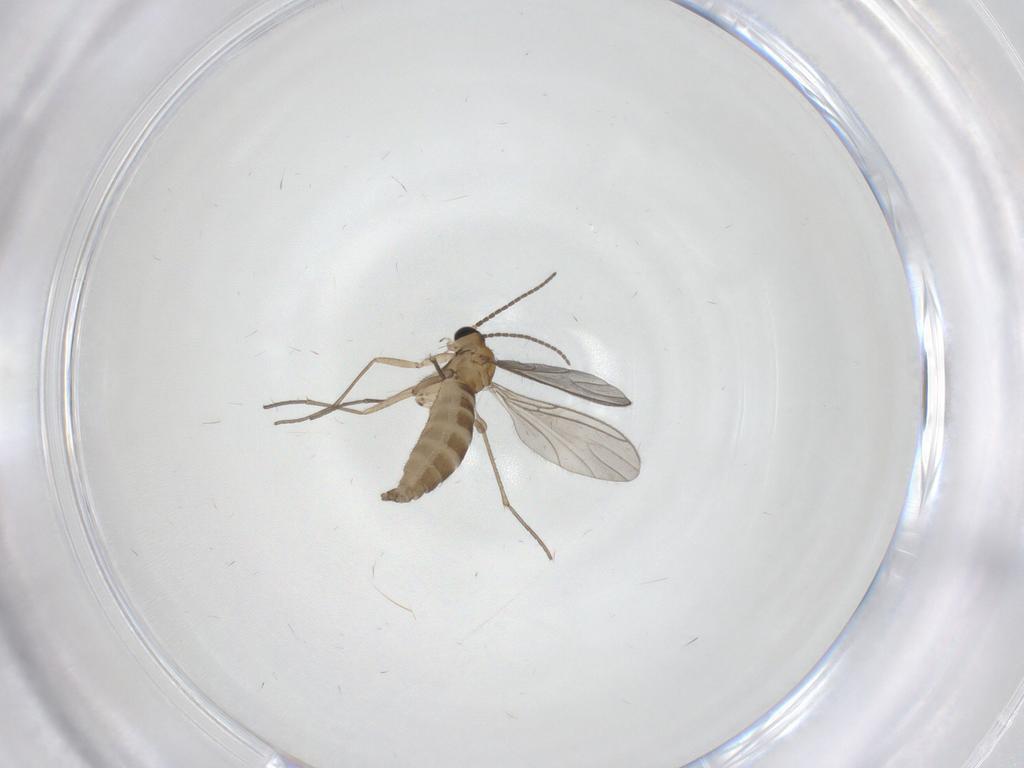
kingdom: Animalia
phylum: Arthropoda
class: Insecta
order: Diptera
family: Sciaridae
